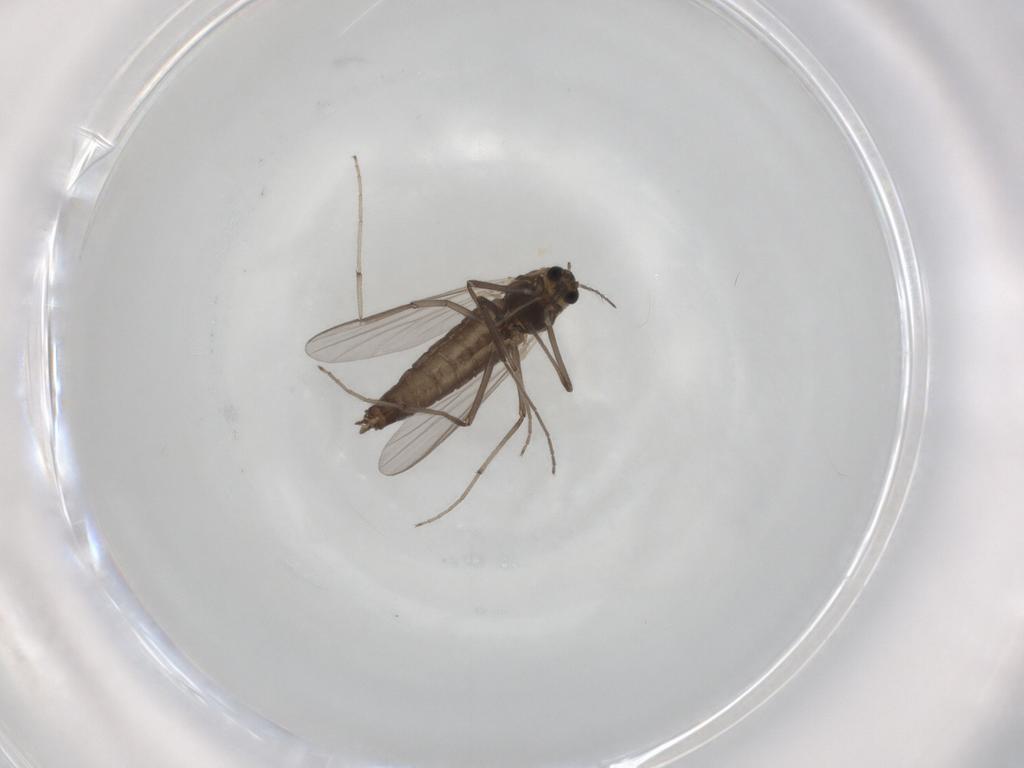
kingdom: Animalia
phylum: Arthropoda
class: Insecta
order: Diptera
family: Chironomidae
